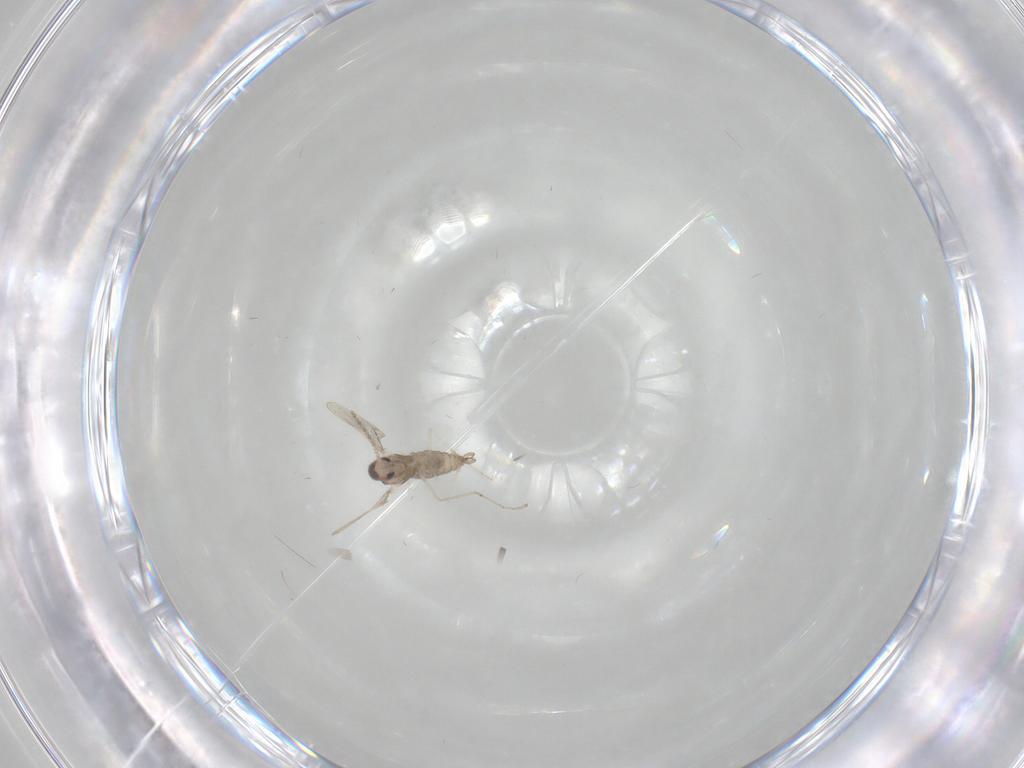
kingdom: Animalia
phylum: Arthropoda
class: Insecta
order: Diptera
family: Cecidomyiidae
